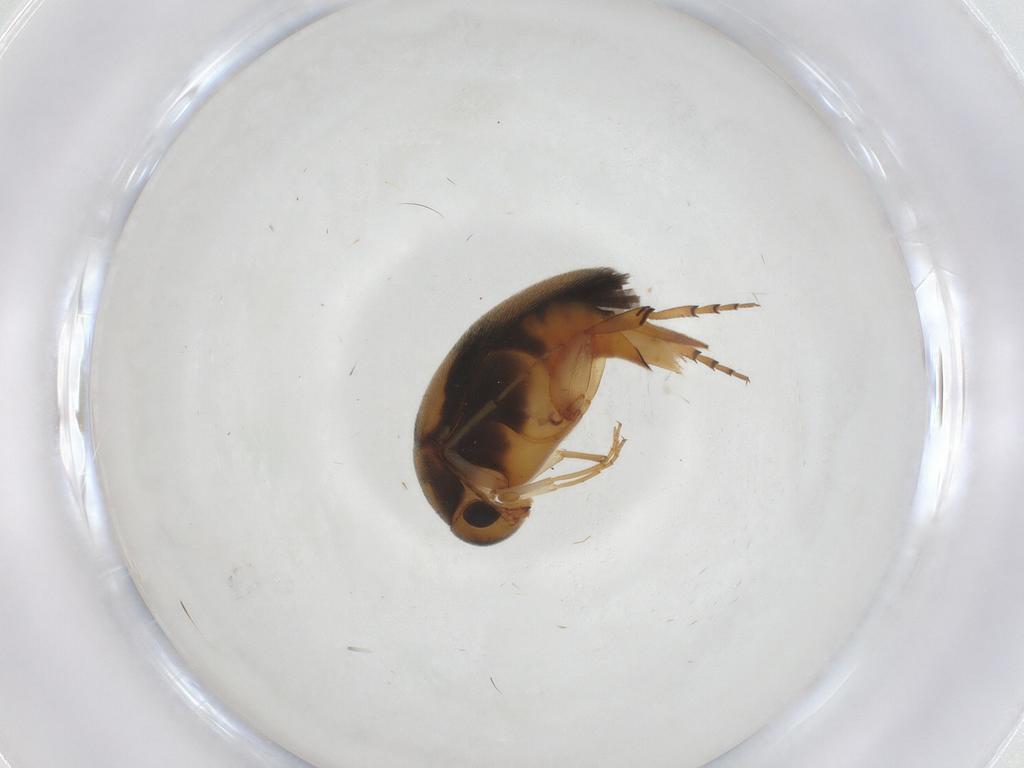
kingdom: Animalia
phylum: Arthropoda
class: Insecta
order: Coleoptera
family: Mordellidae
